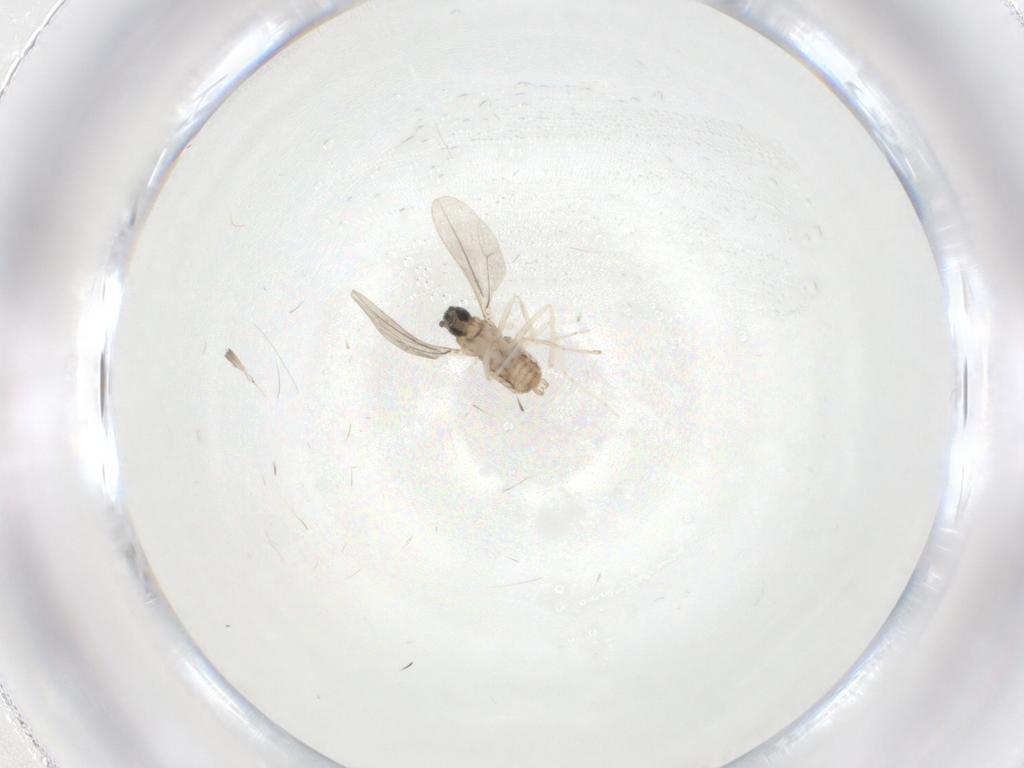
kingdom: Animalia
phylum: Arthropoda
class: Insecta
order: Diptera
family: Cecidomyiidae
